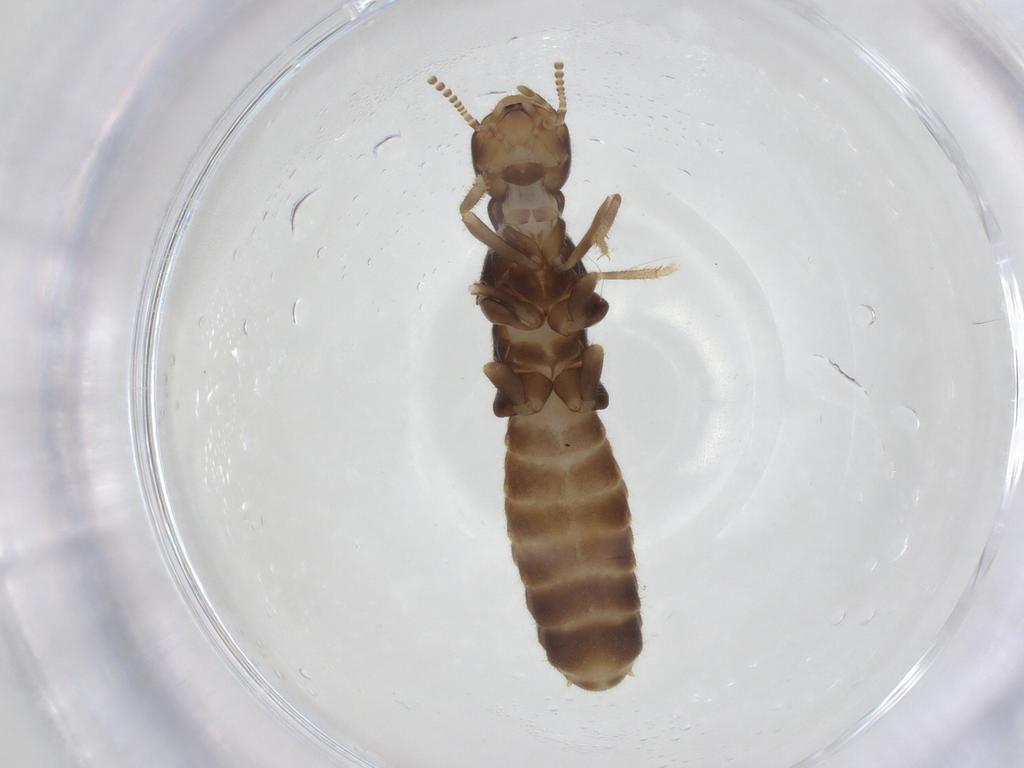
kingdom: Animalia
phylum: Arthropoda
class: Insecta
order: Blattodea
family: Rhinotermitidae
